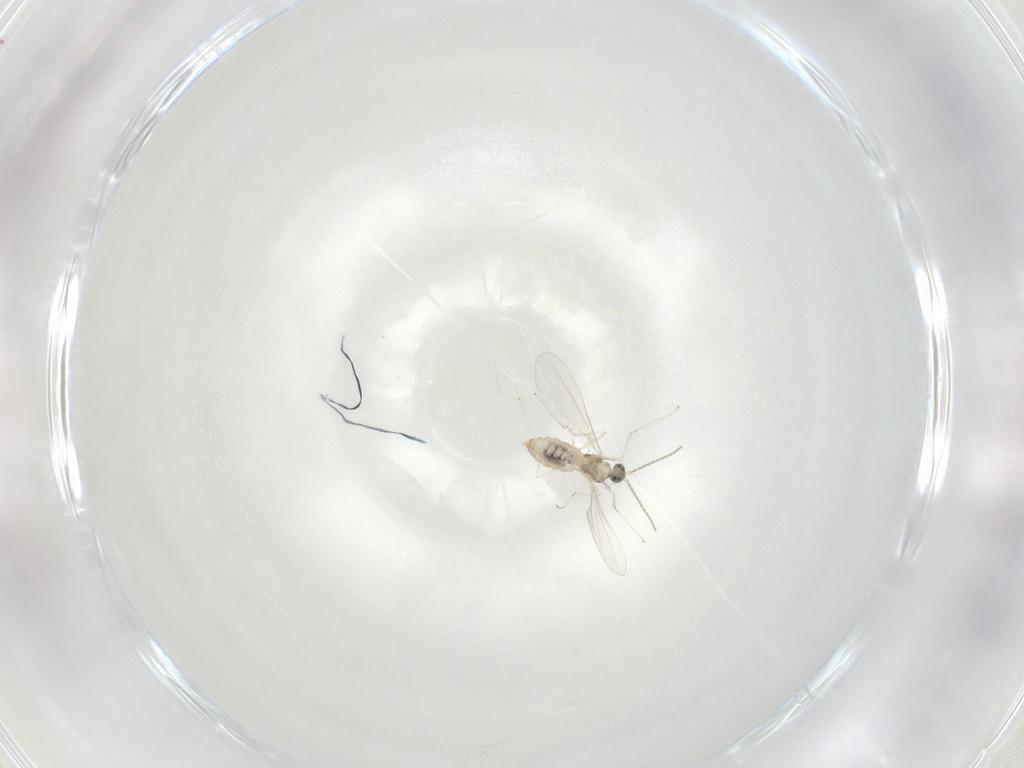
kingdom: Animalia
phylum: Arthropoda
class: Insecta
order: Diptera
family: Cecidomyiidae
